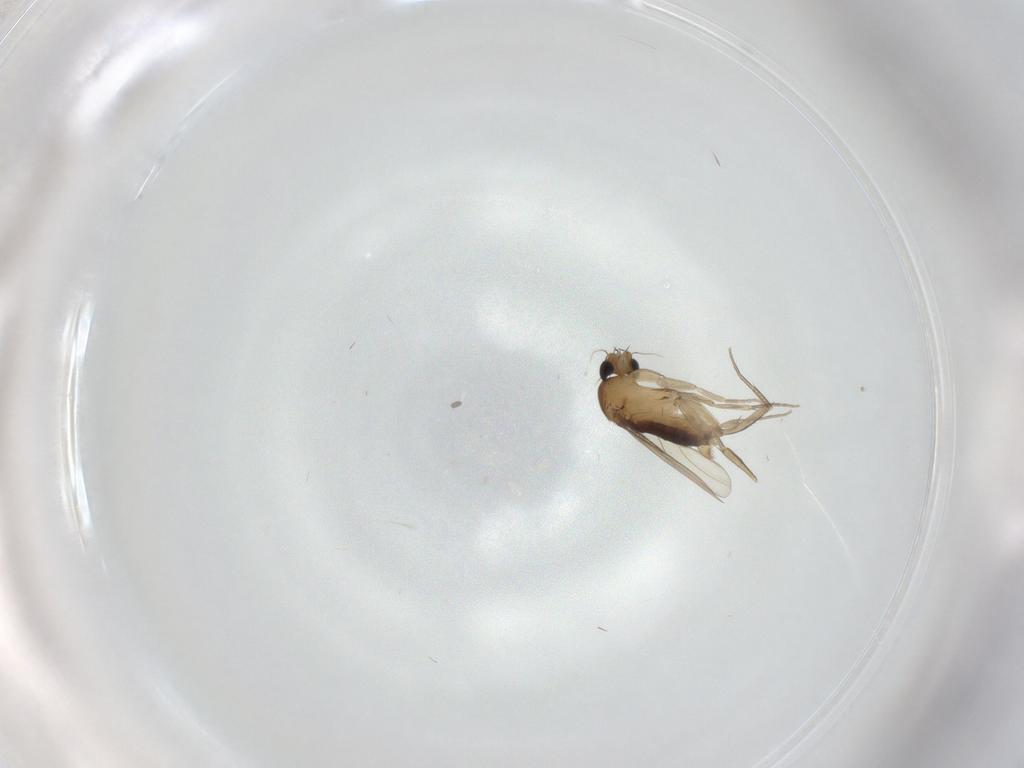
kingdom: Animalia
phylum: Arthropoda
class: Insecta
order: Diptera
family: Phoridae
